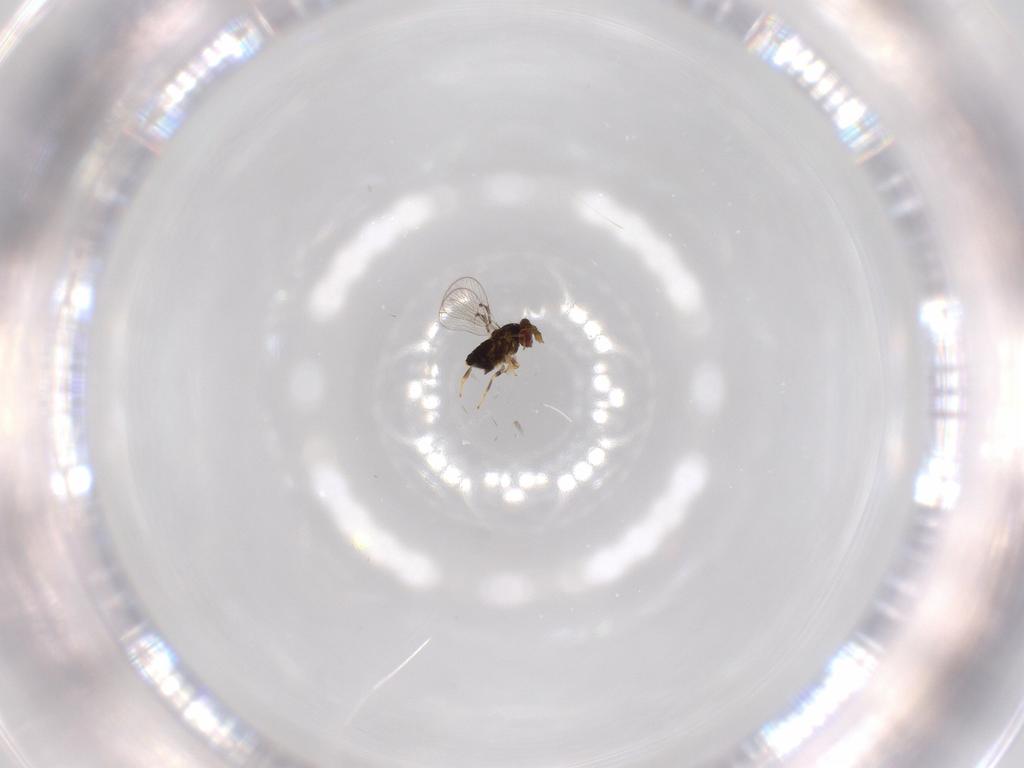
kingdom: Animalia
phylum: Arthropoda
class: Insecta
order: Hymenoptera
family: Trichogrammatidae
